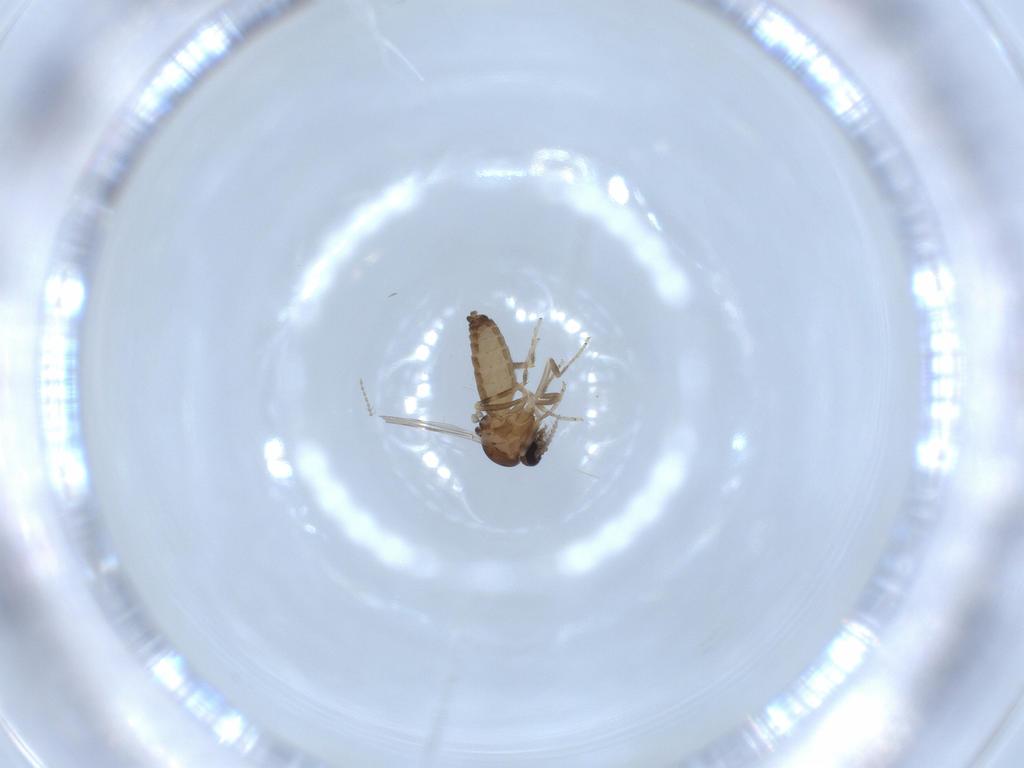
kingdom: Animalia
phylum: Arthropoda
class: Insecta
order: Diptera
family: Ceratopogonidae
